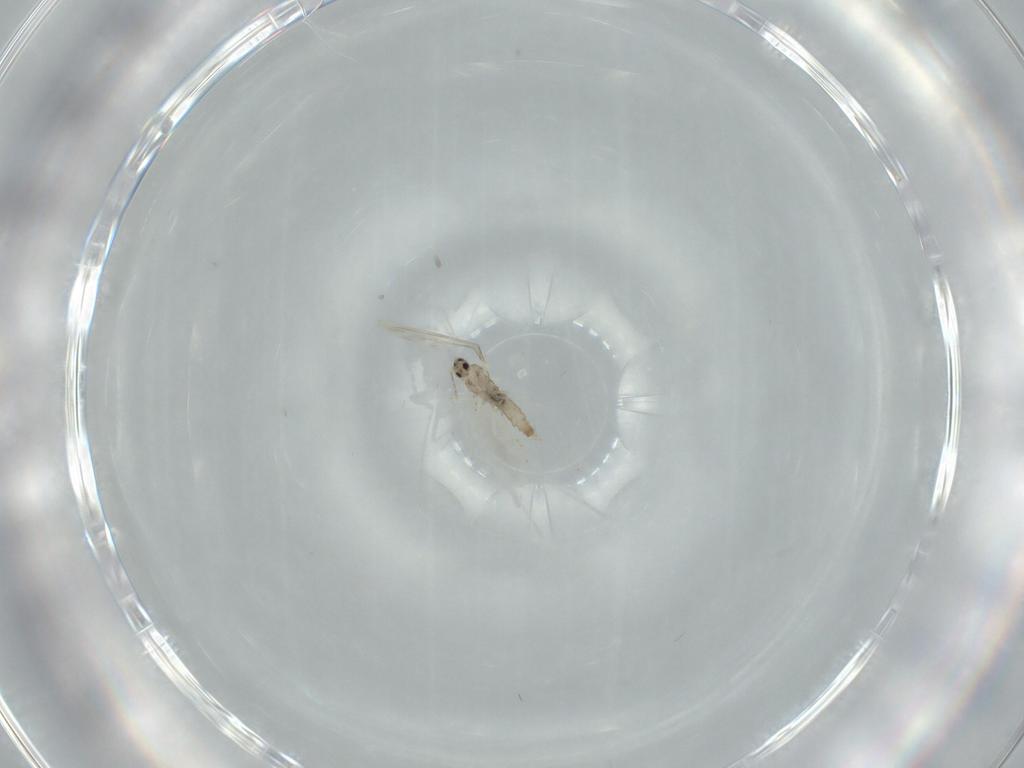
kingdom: Animalia
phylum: Arthropoda
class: Insecta
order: Diptera
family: Cecidomyiidae
